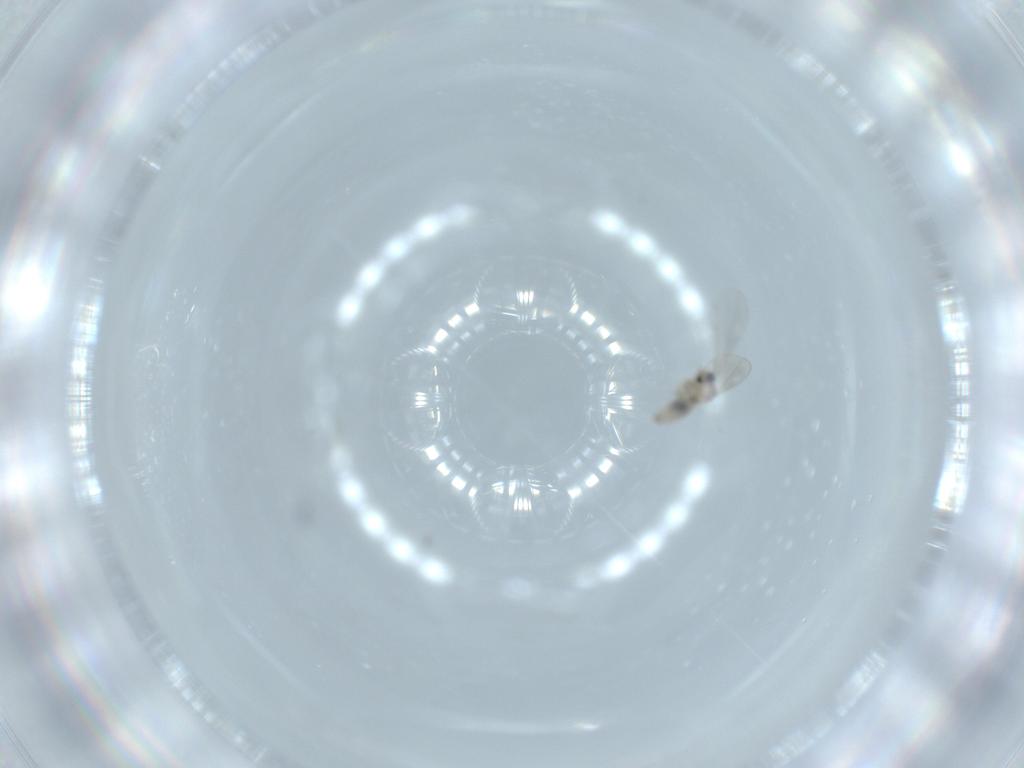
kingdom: Animalia
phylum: Arthropoda
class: Insecta
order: Diptera
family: Cecidomyiidae
